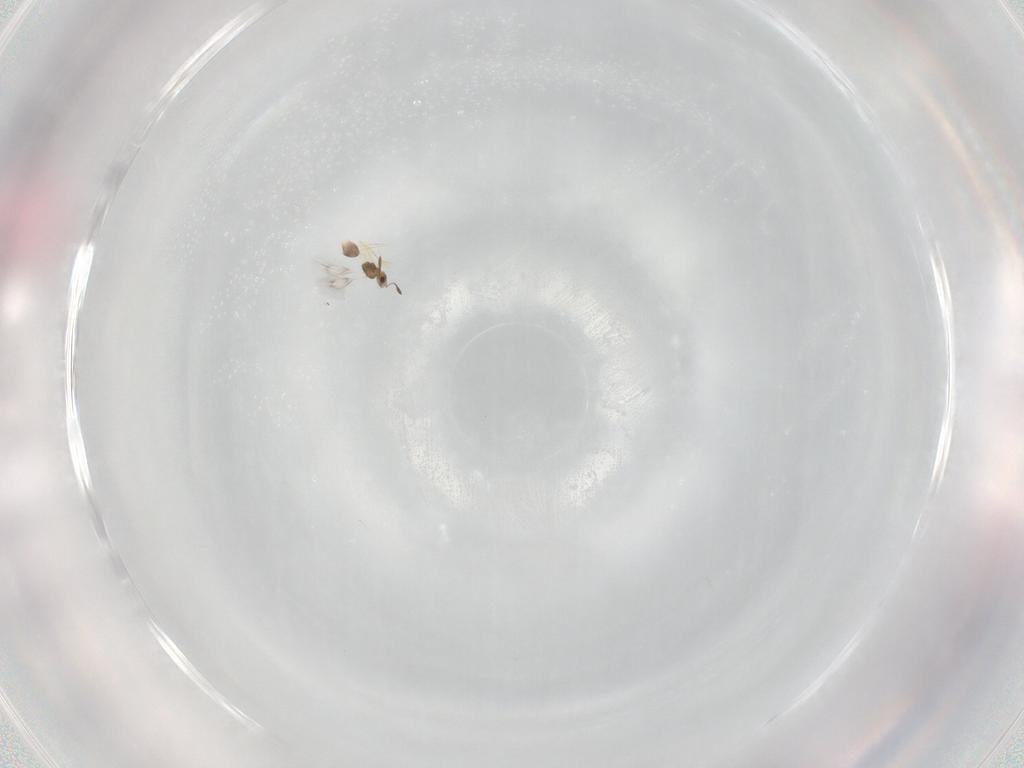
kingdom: Animalia
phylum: Arthropoda
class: Insecta
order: Hymenoptera
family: Mymarommatidae
